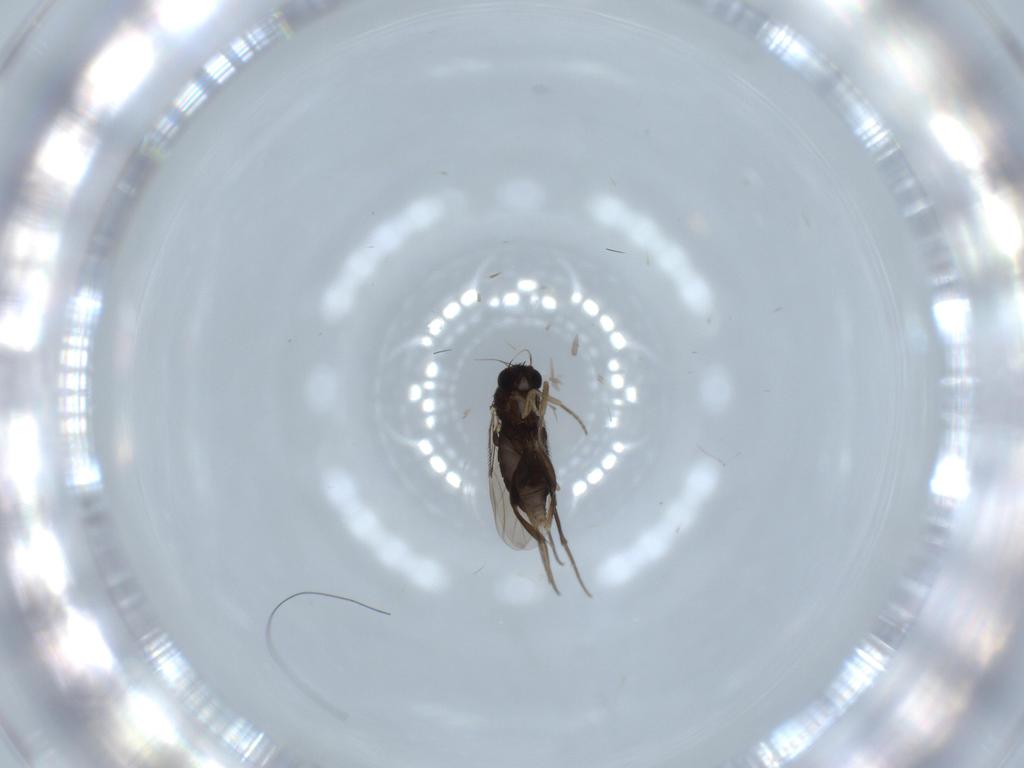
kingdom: Animalia
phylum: Arthropoda
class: Insecta
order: Diptera
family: Phoridae
